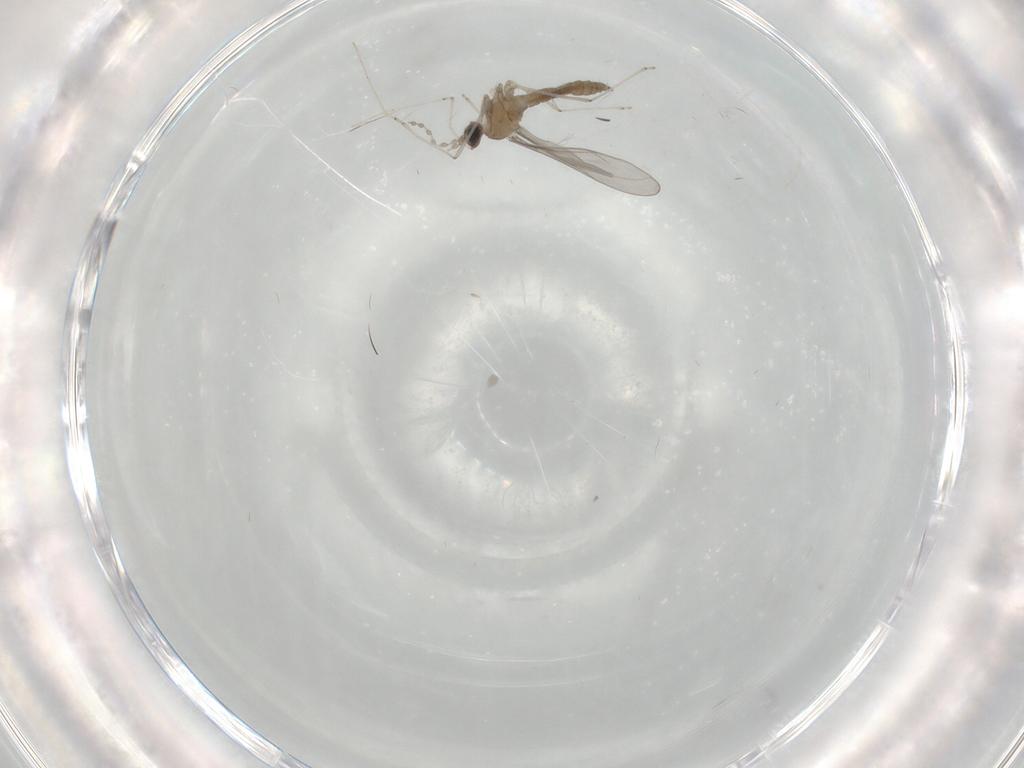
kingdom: Animalia
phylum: Arthropoda
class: Insecta
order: Diptera
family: Cecidomyiidae
